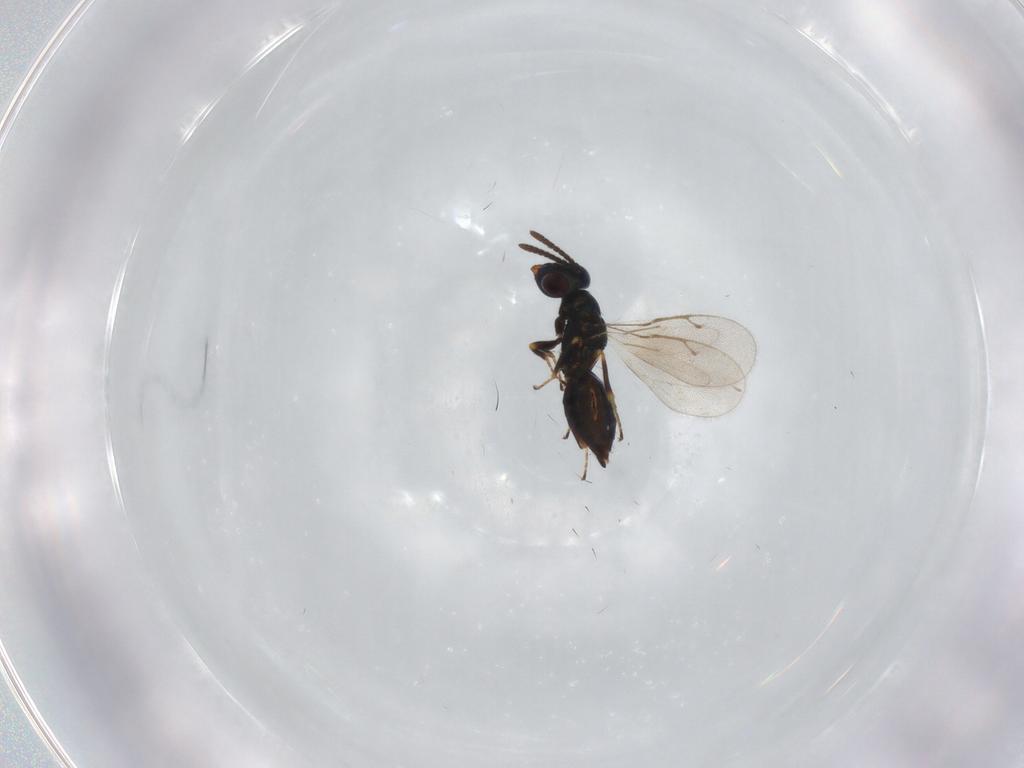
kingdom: Animalia
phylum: Arthropoda
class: Insecta
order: Hymenoptera
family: Pteromalidae
